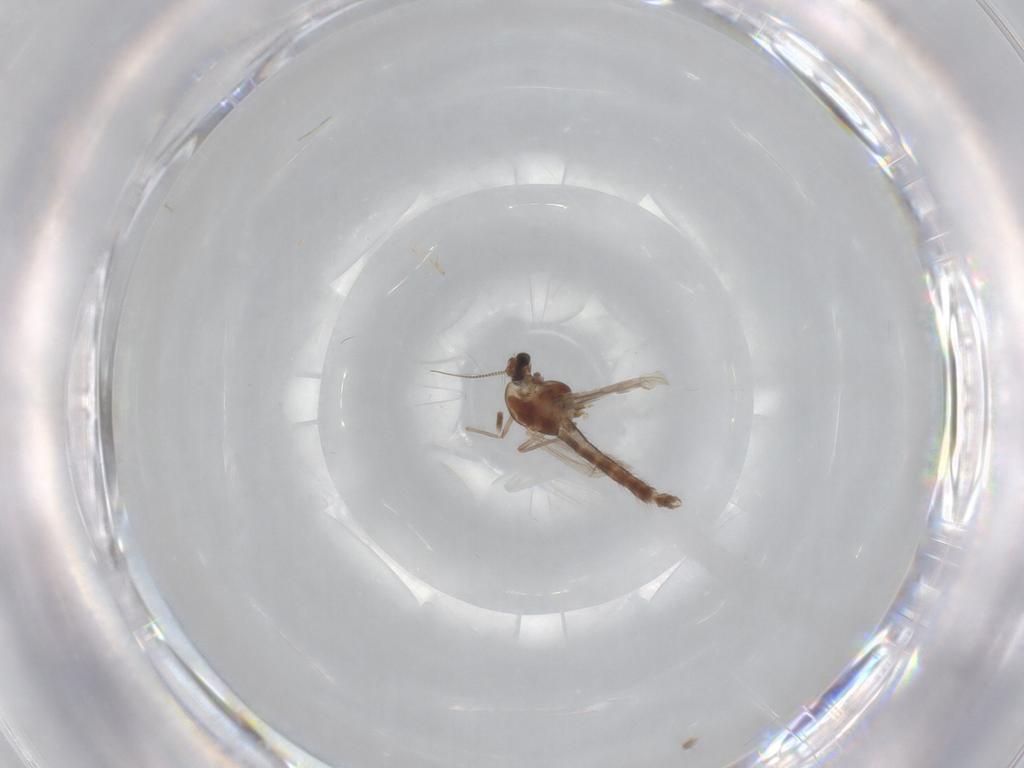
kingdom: Animalia
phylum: Arthropoda
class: Insecta
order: Diptera
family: Chironomidae
